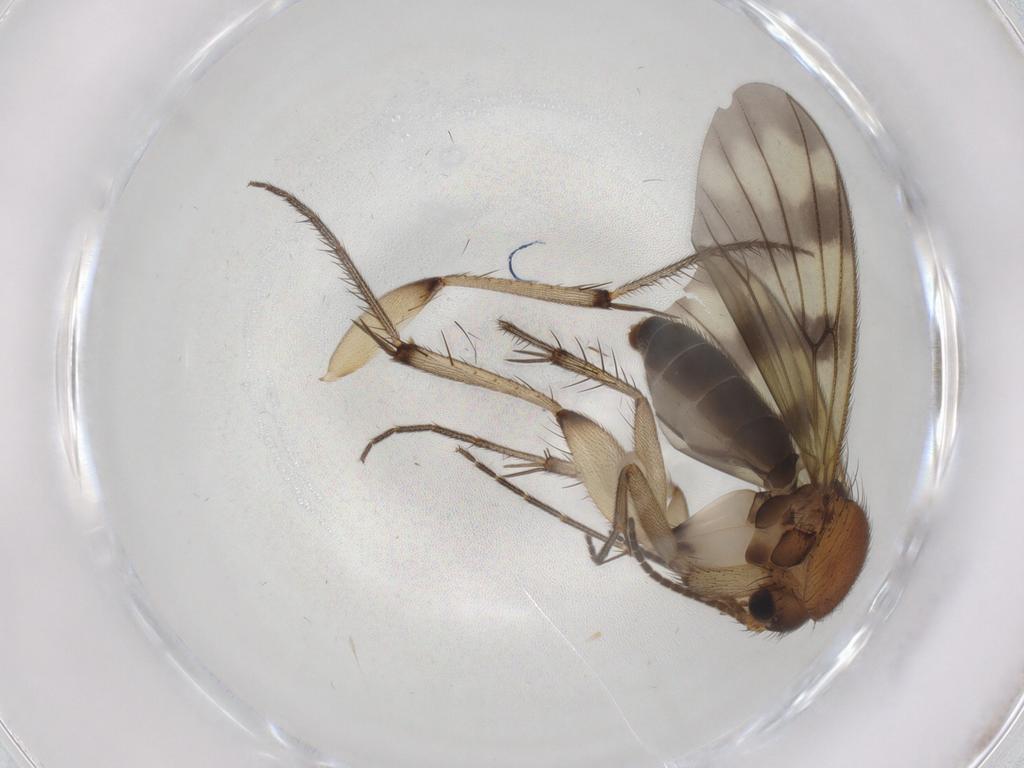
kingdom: Animalia
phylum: Arthropoda
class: Insecta
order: Diptera
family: Mycetophilidae
